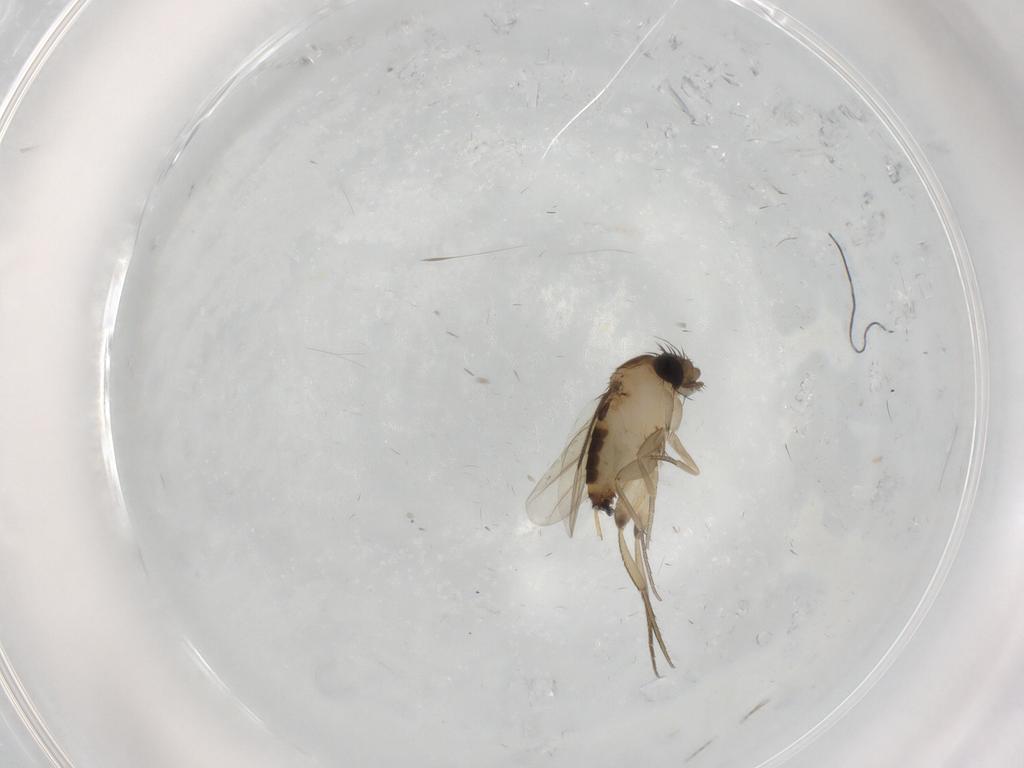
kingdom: Animalia
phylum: Arthropoda
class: Insecta
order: Diptera
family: Phoridae
